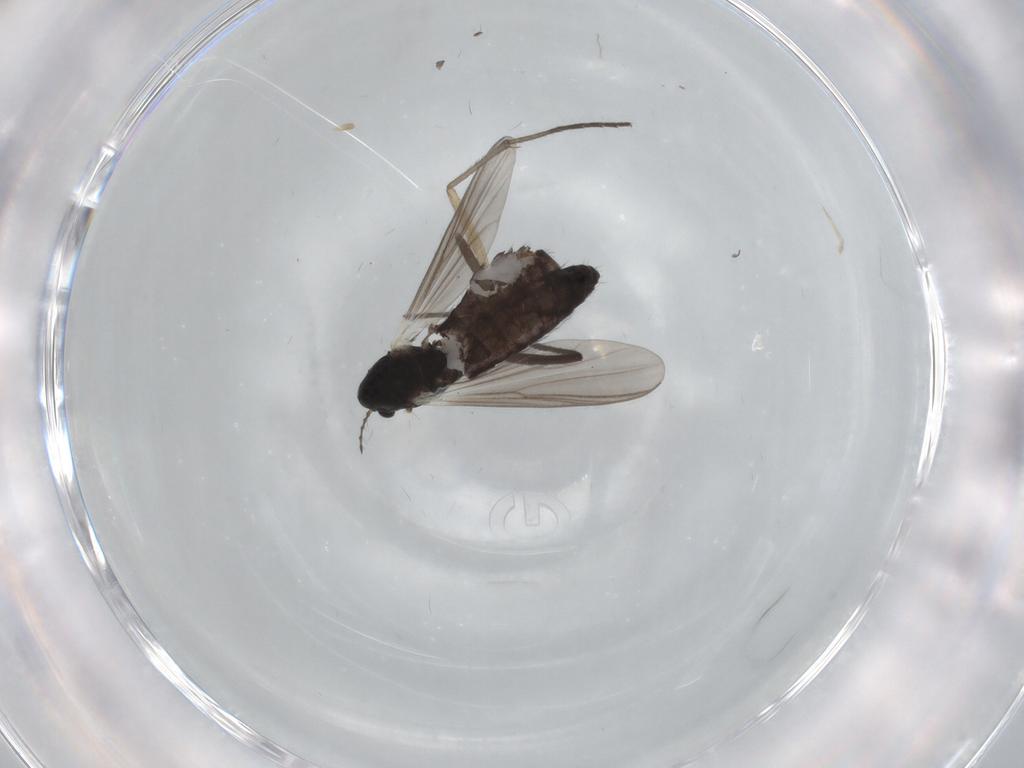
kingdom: Animalia
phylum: Arthropoda
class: Insecta
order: Diptera
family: Chironomidae
